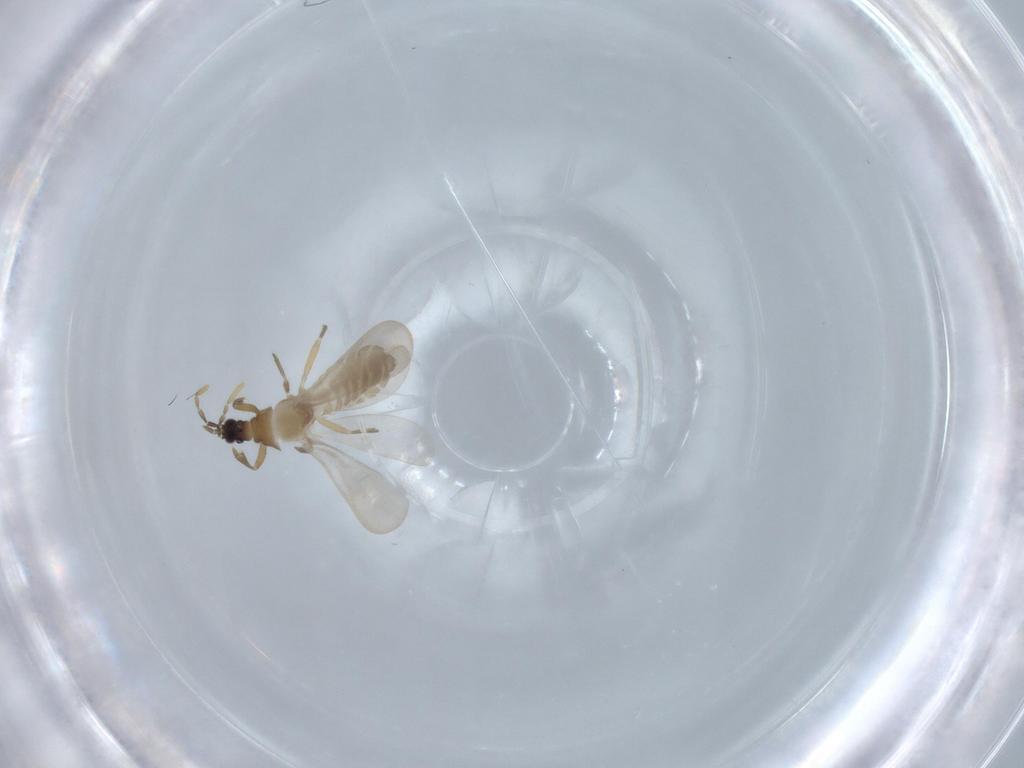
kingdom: Animalia
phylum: Arthropoda
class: Insecta
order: Hemiptera
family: Enicocephalidae
